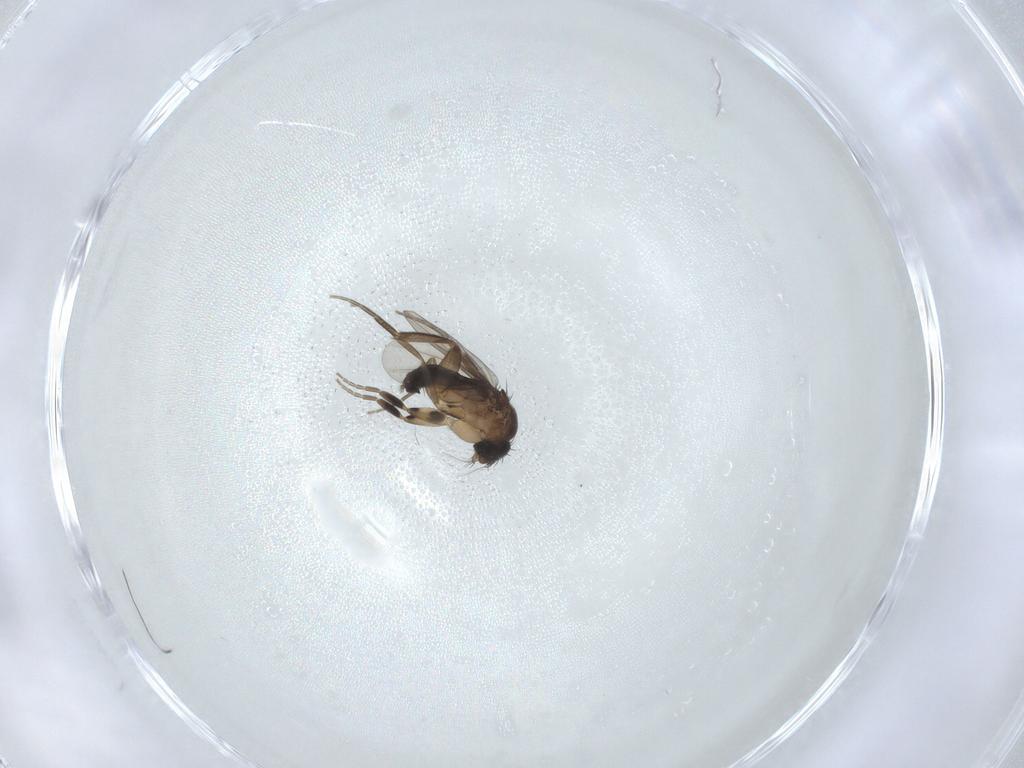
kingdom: Animalia
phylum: Arthropoda
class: Insecta
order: Diptera
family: Phoridae
